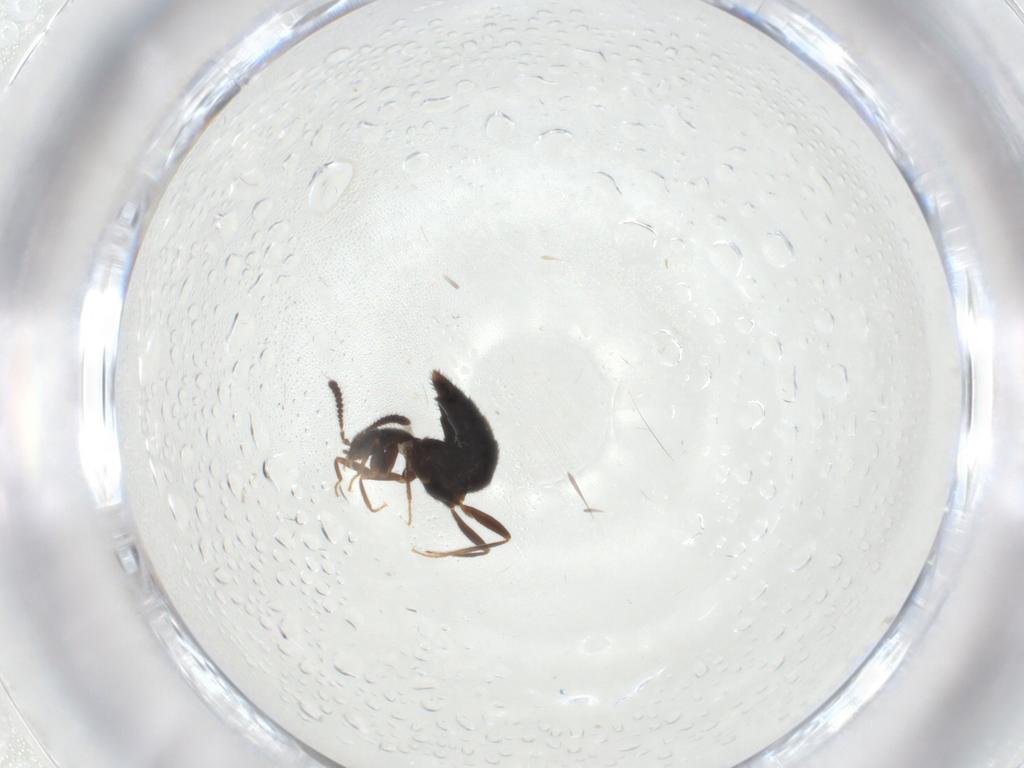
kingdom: Animalia
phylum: Arthropoda
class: Insecta
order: Coleoptera
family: Staphylinidae
